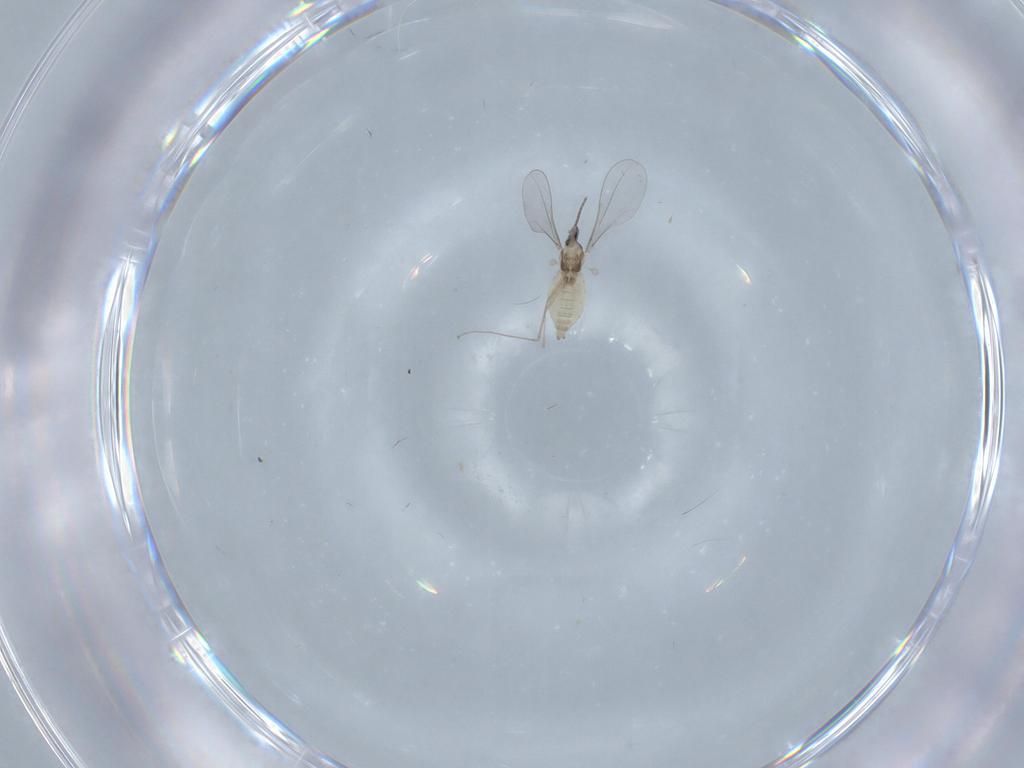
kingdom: Animalia
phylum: Arthropoda
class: Insecta
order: Diptera
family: Cecidomyiidae
